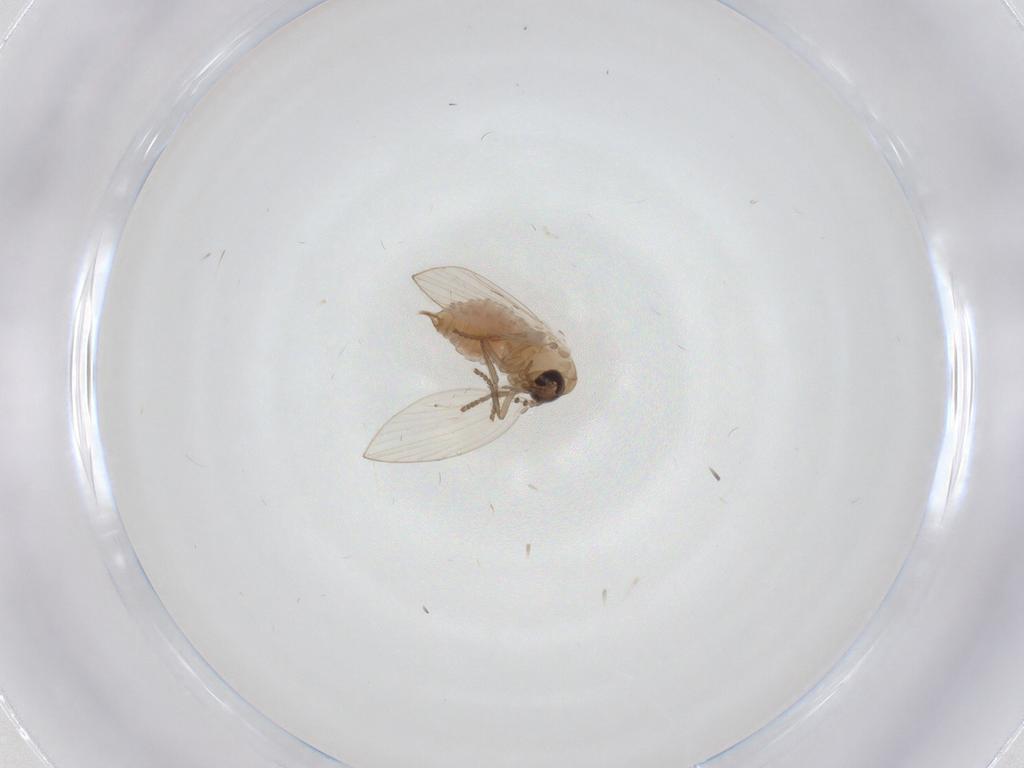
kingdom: Animalia
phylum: Arthropoda
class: Insecta
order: Diptera
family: Psychodidae
